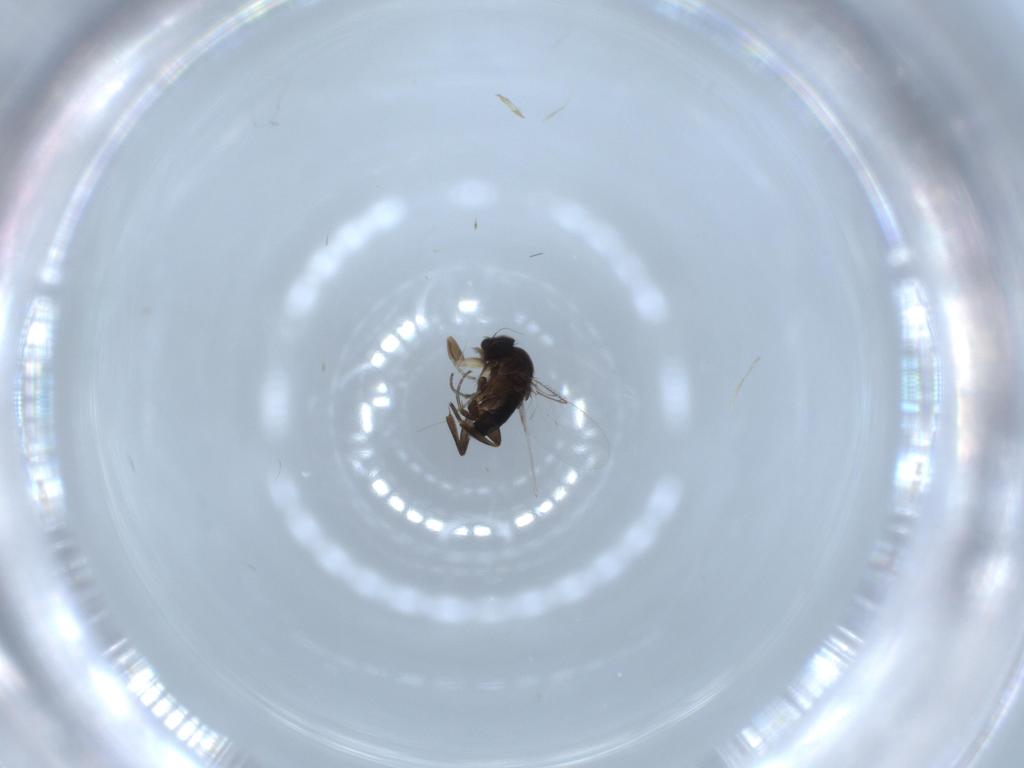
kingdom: Animalia
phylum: Arthropoda
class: Insecta
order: Diptera
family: Phoridae
